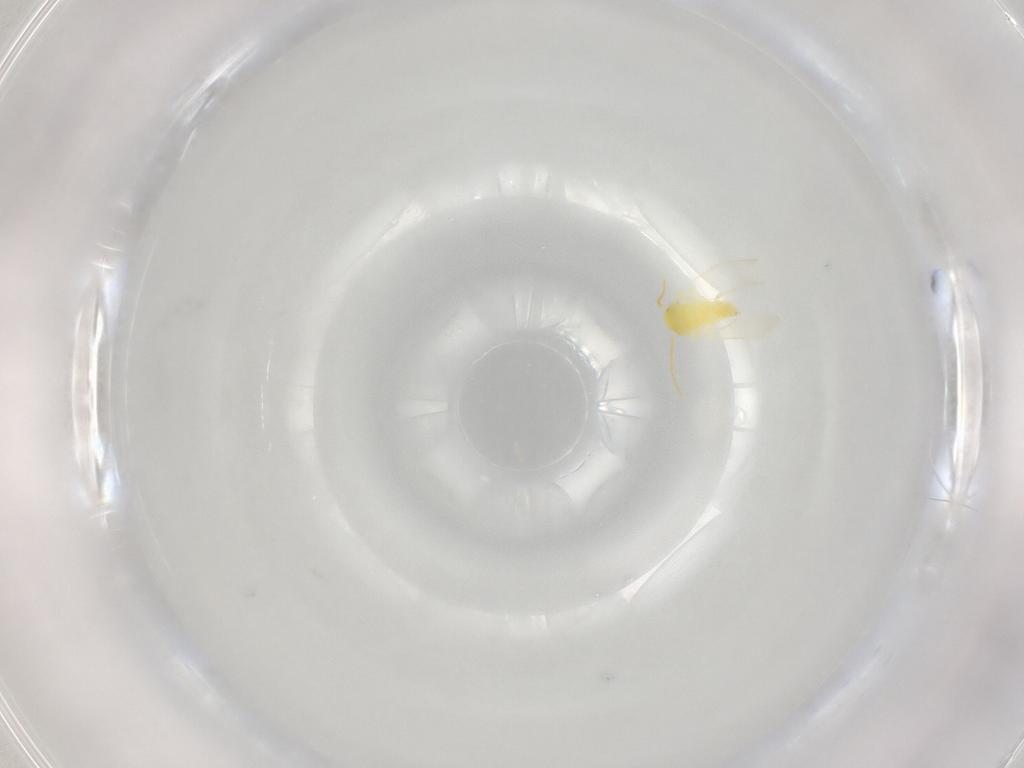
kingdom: Animalia
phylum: Arthropoda
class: Insecta
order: Hemiptera
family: Aleyrodidae
